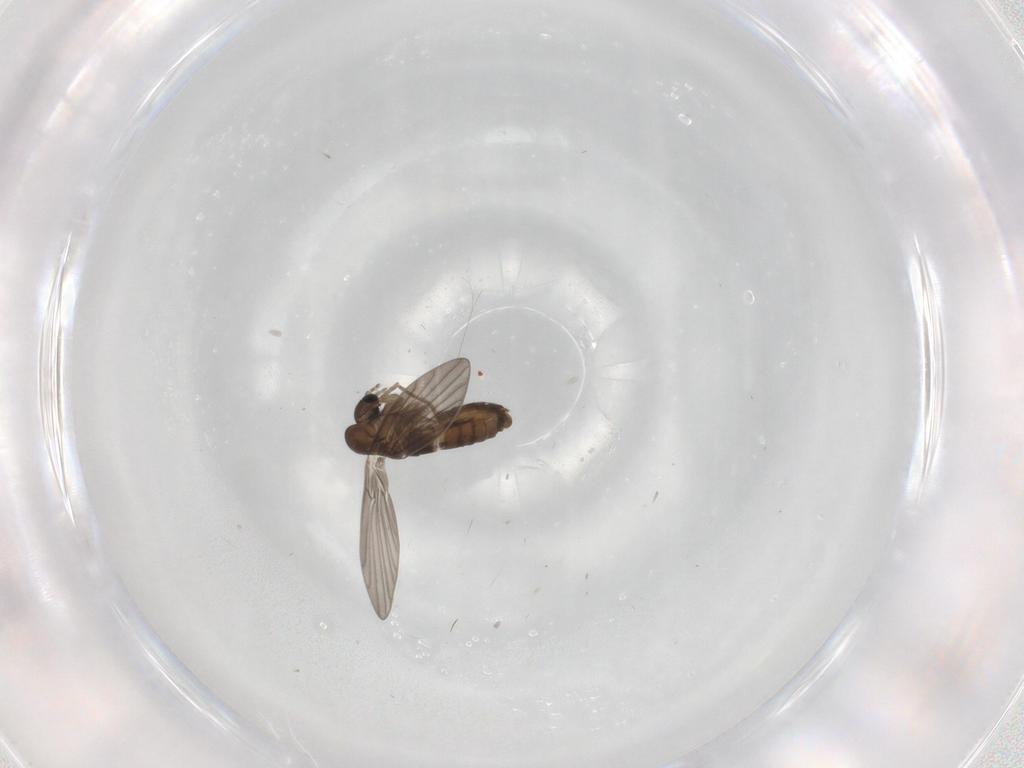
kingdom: Animalia
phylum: Arthropoda
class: Insecta
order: Diptera
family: Psychodidae
